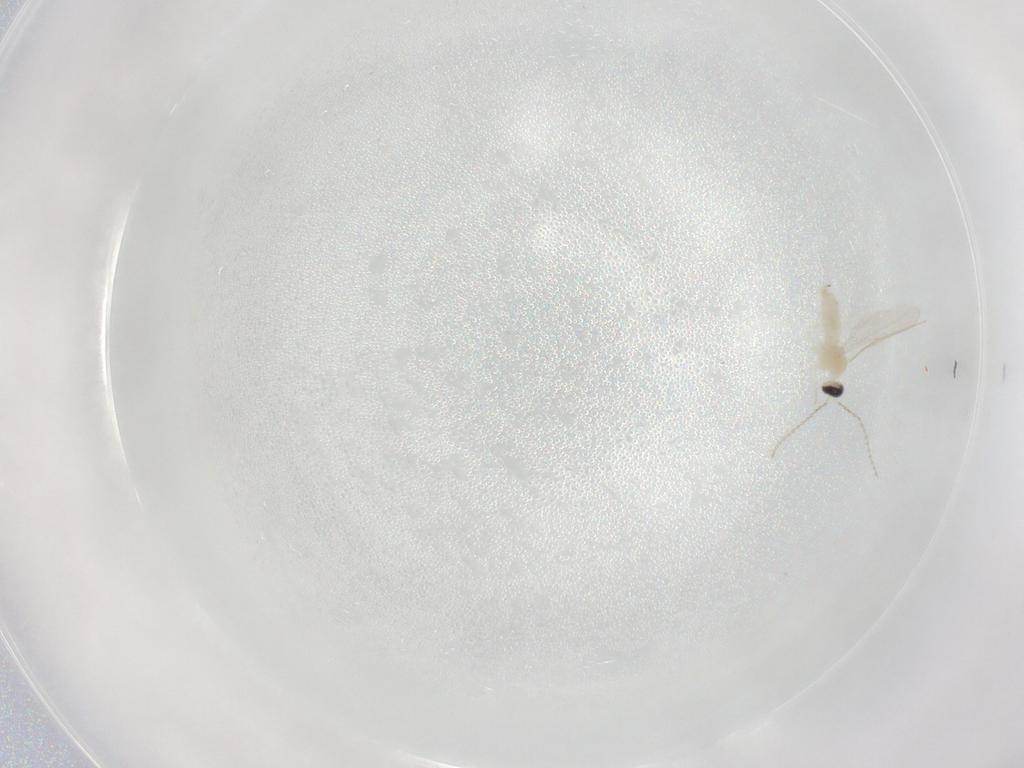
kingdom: Animalia
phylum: Arthropoda
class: Insecta
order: Diptera
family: Cecidomyiidae
